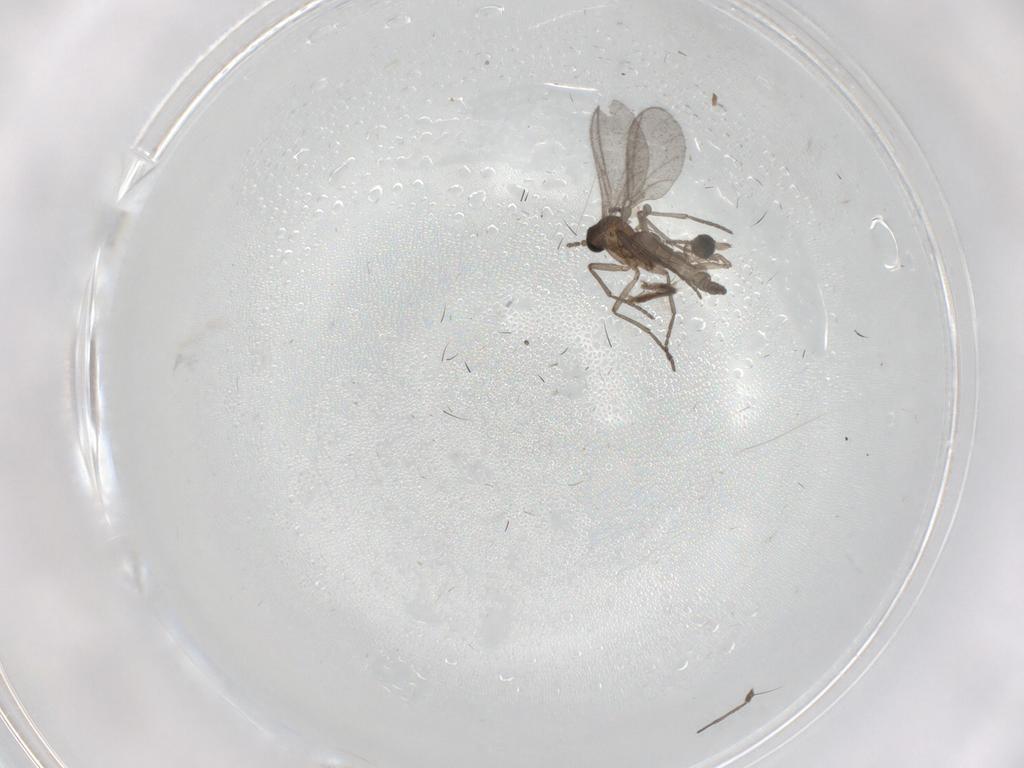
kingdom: Animalia
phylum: Arthropoda
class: Insecta
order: Diptera
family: Sciaridae
